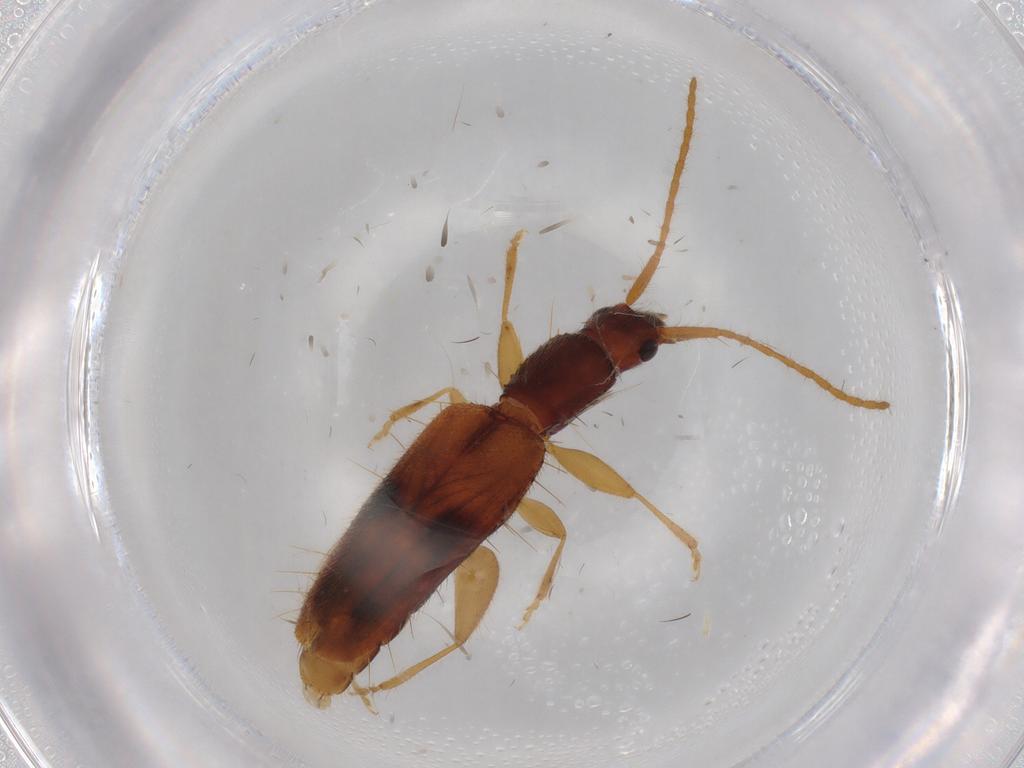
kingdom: Animalia
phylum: Arthropoda
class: Insecta
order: Coleoptera
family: Silvanidae
